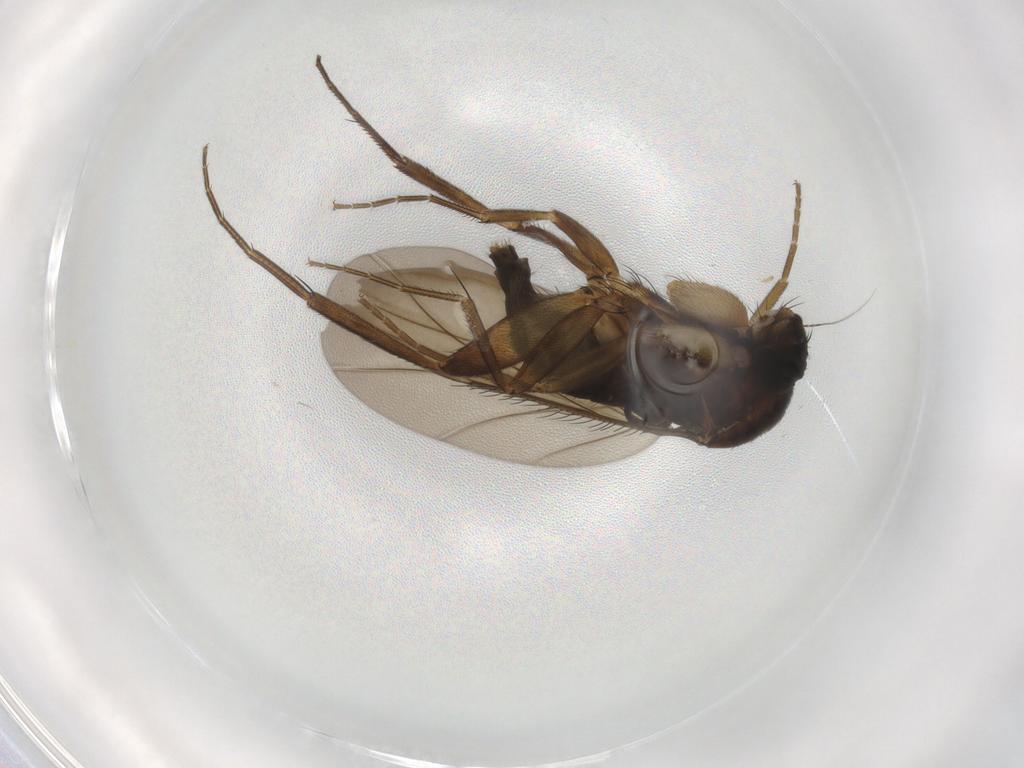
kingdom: Animalia
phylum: Arthropoda
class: Insecta
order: Diptera
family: Phoridae
